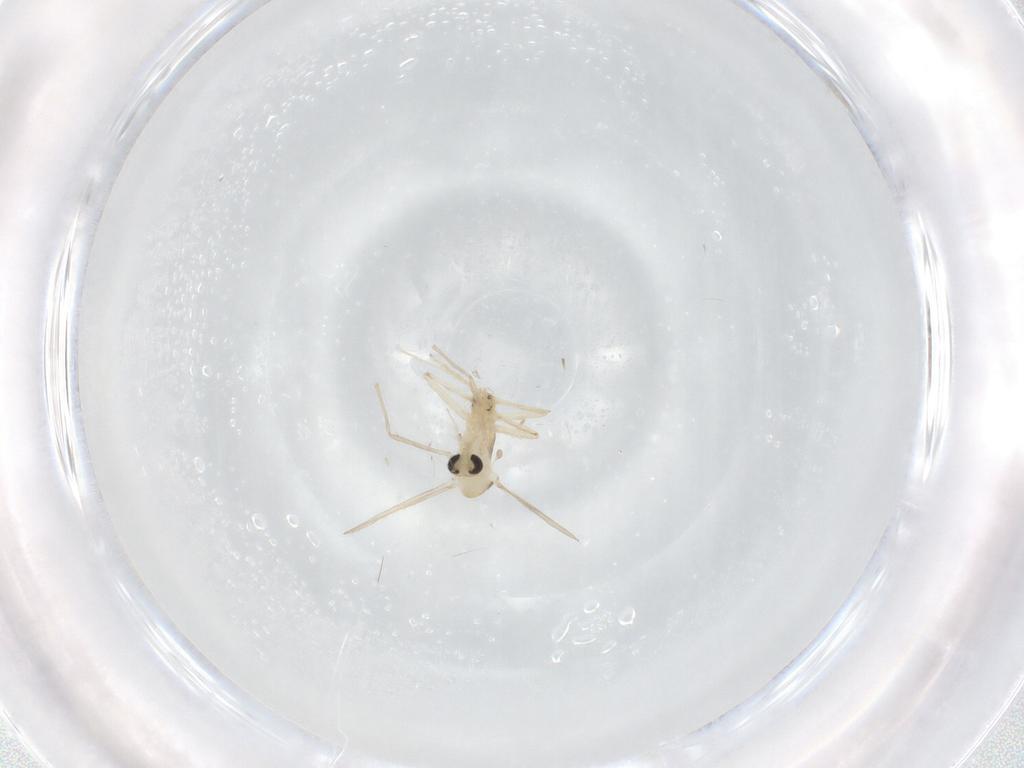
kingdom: Animalia
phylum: Arthropoda
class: Insecta
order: Diptera
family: Chironomidae
